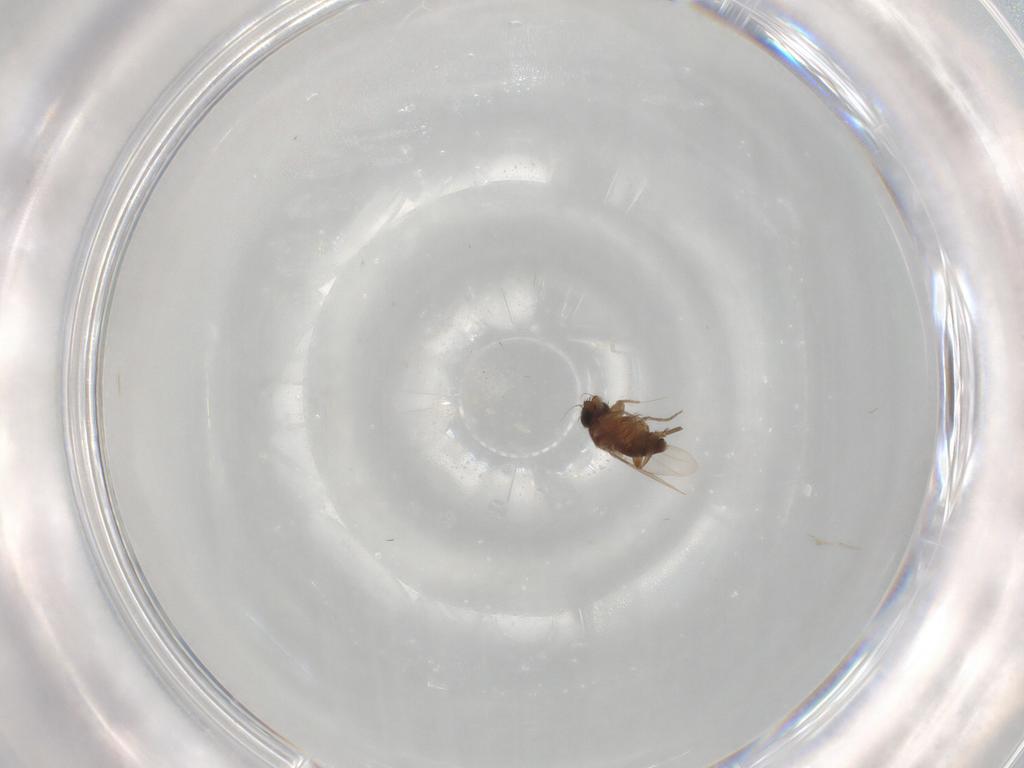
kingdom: Animalia
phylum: Arthropoda
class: Insecta
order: Diptera
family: Phoridae
